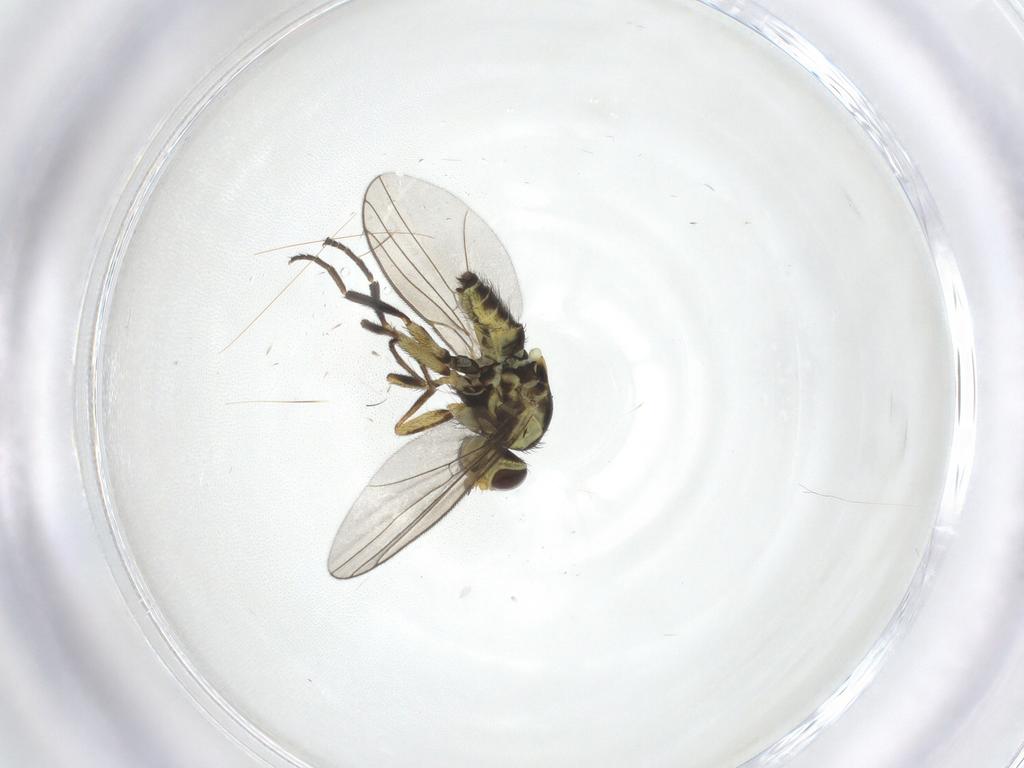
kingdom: Animalia
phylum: Arthropoda
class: Insecta
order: Diptera
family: Agromyzidae
